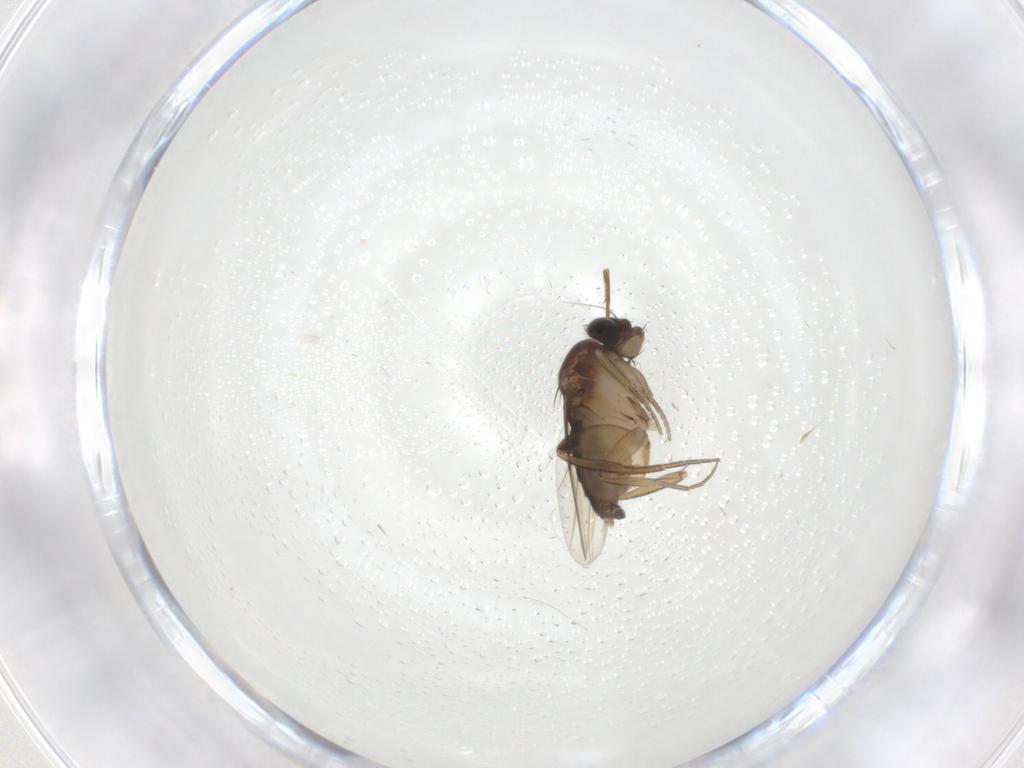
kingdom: Animalia
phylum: Arthropoda
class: Insecta
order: Diptera
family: Phoridae
